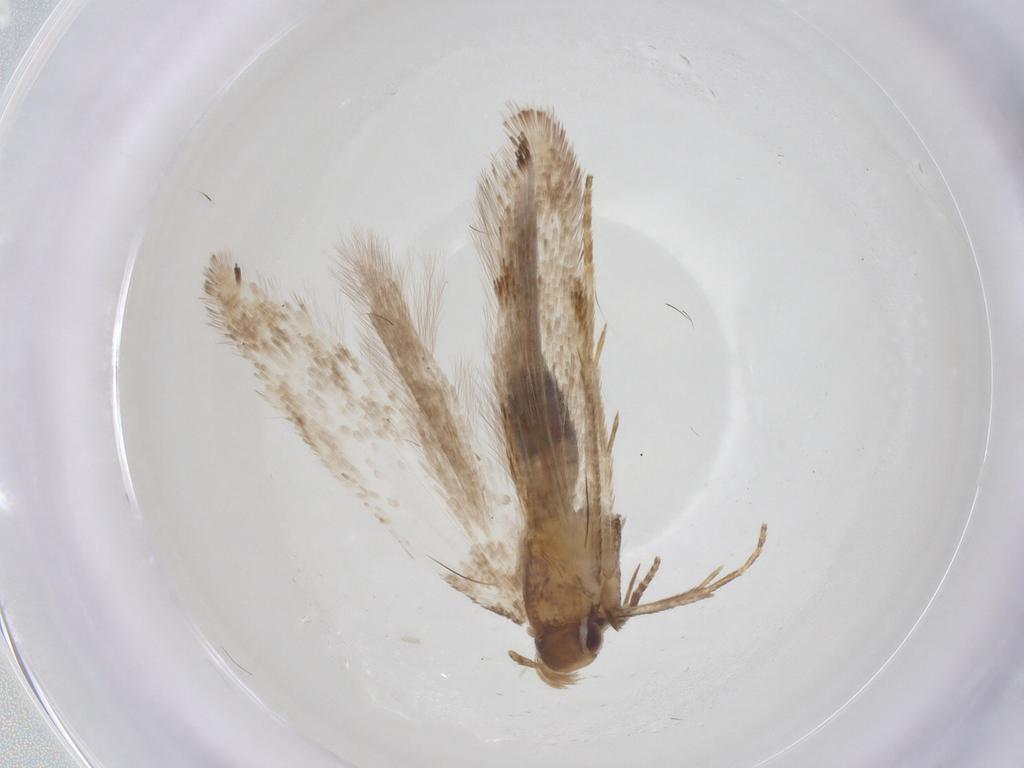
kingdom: Animalia
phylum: Arthropoda
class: Insecta
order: Lepidoptera
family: Gelechiidae
